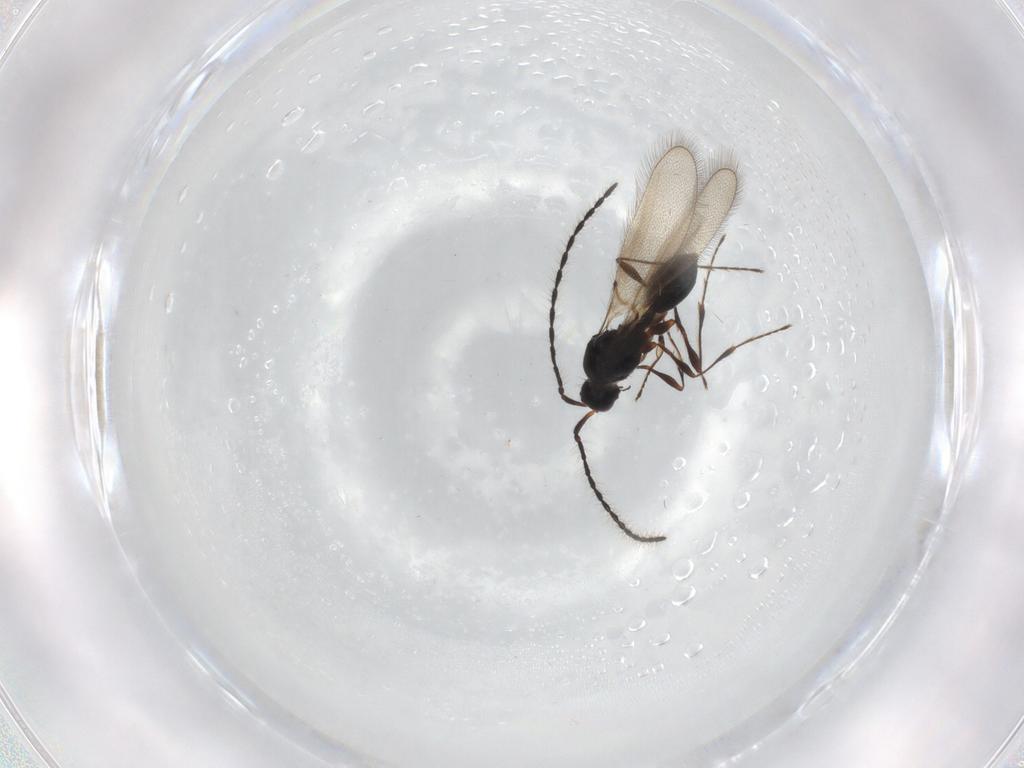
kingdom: Animalia
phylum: Arthropoda
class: Insecta
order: Hymenoptera
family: Diapriidae
